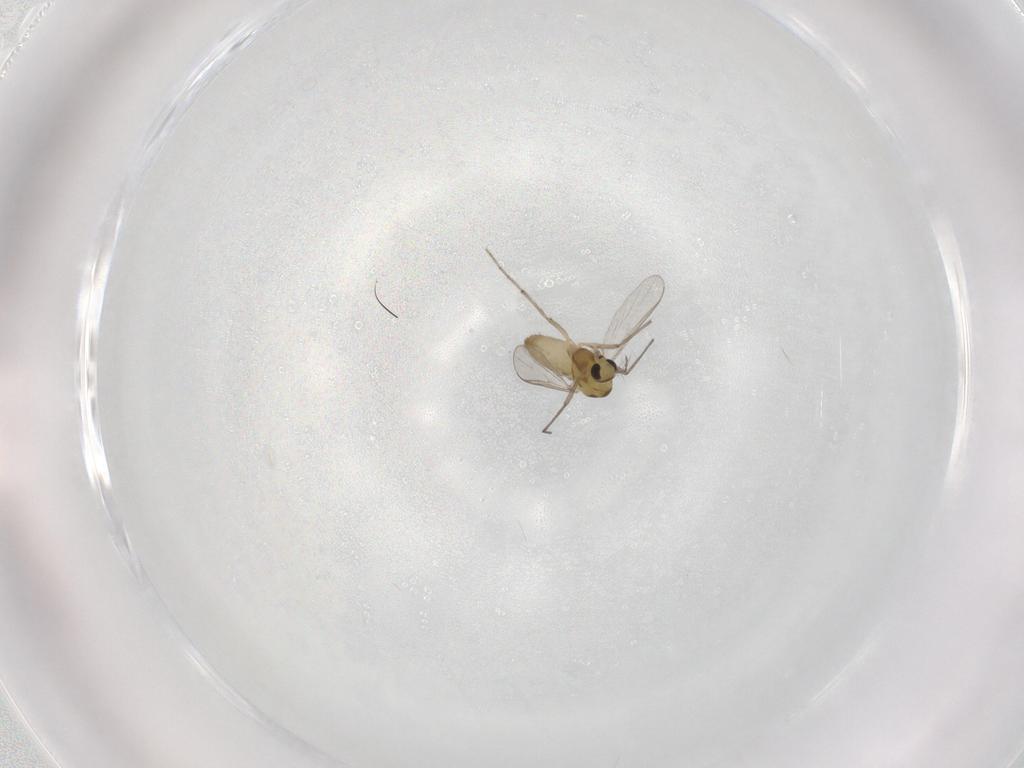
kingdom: Animalia
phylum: Arthropoda
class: Insecta
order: Diptera
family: Chironomidae
